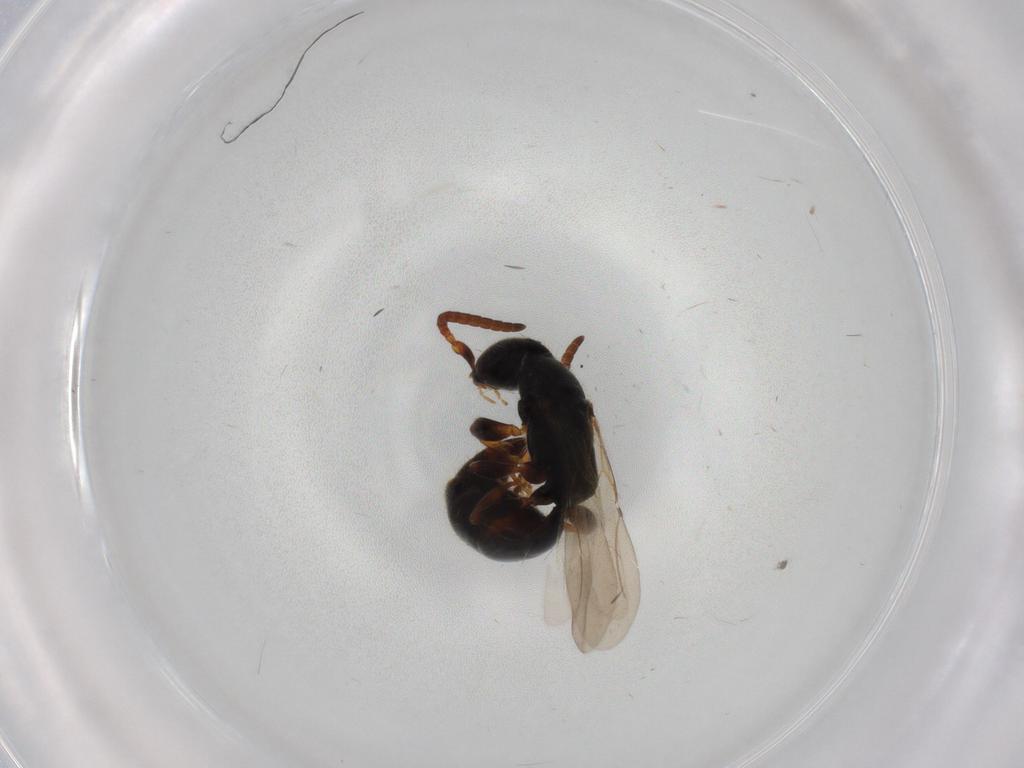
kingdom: Animalia
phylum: Arthropoda
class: Insecta
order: Hymenoptera
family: Bethylidae
